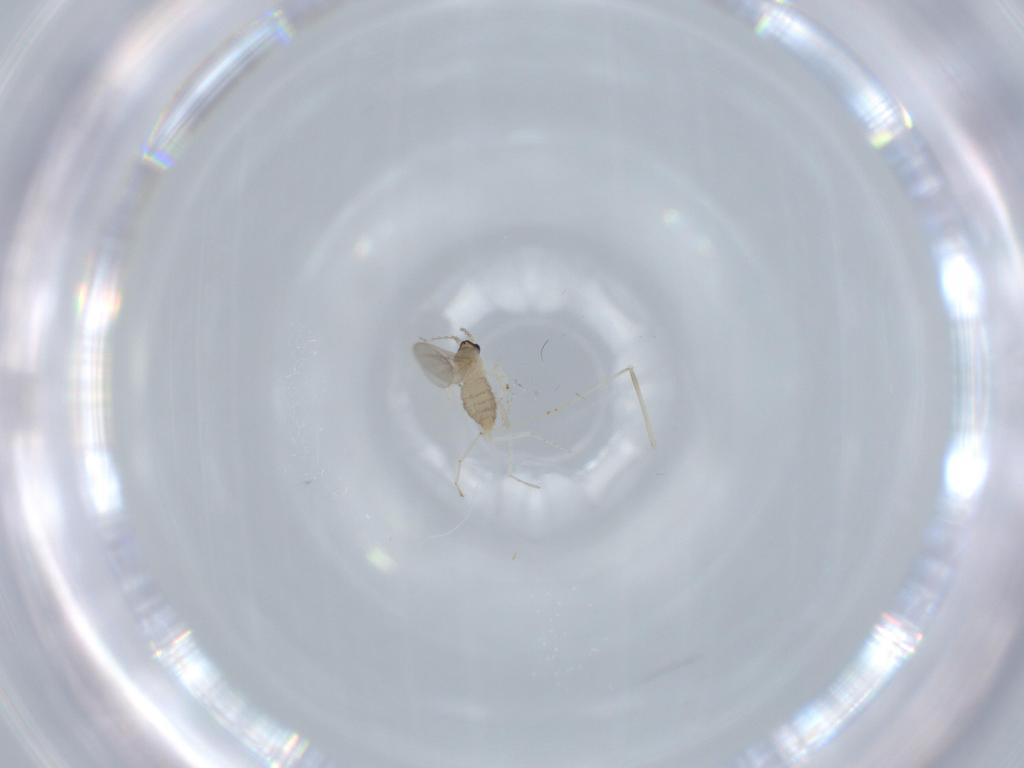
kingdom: Animalia
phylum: Arthropoda
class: Insecta
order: Diptera
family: Cecidomyiidae
